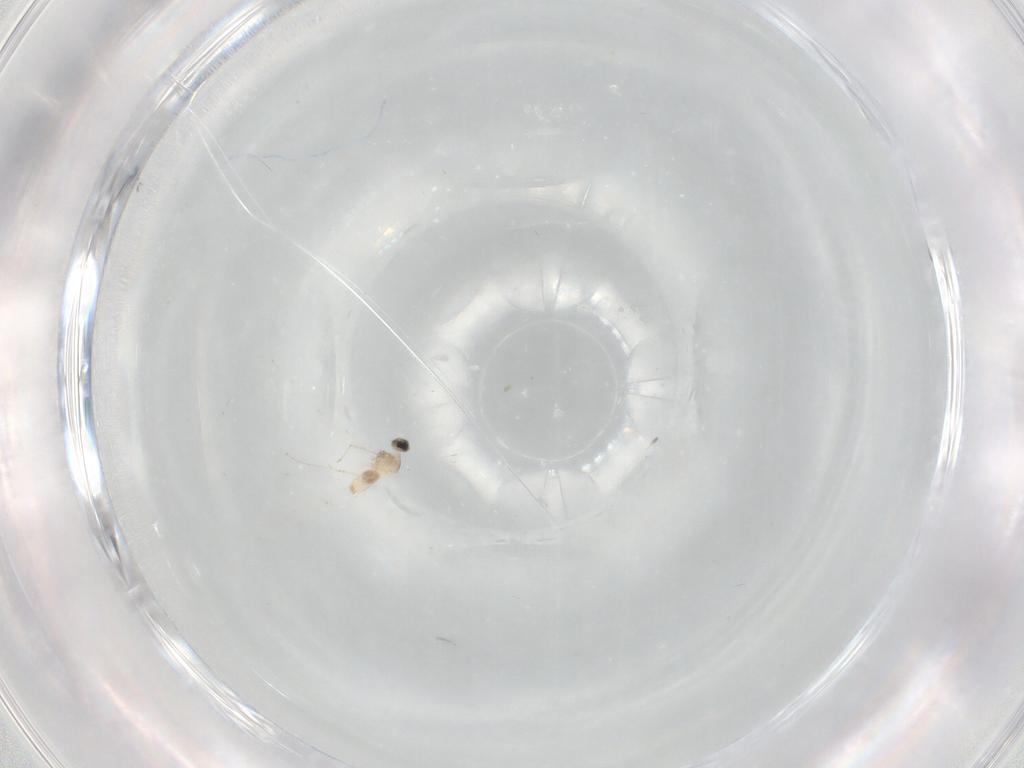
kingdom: Animalia
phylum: Arthropoda
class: Insecta
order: Diptera
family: Cecidomyiidae
